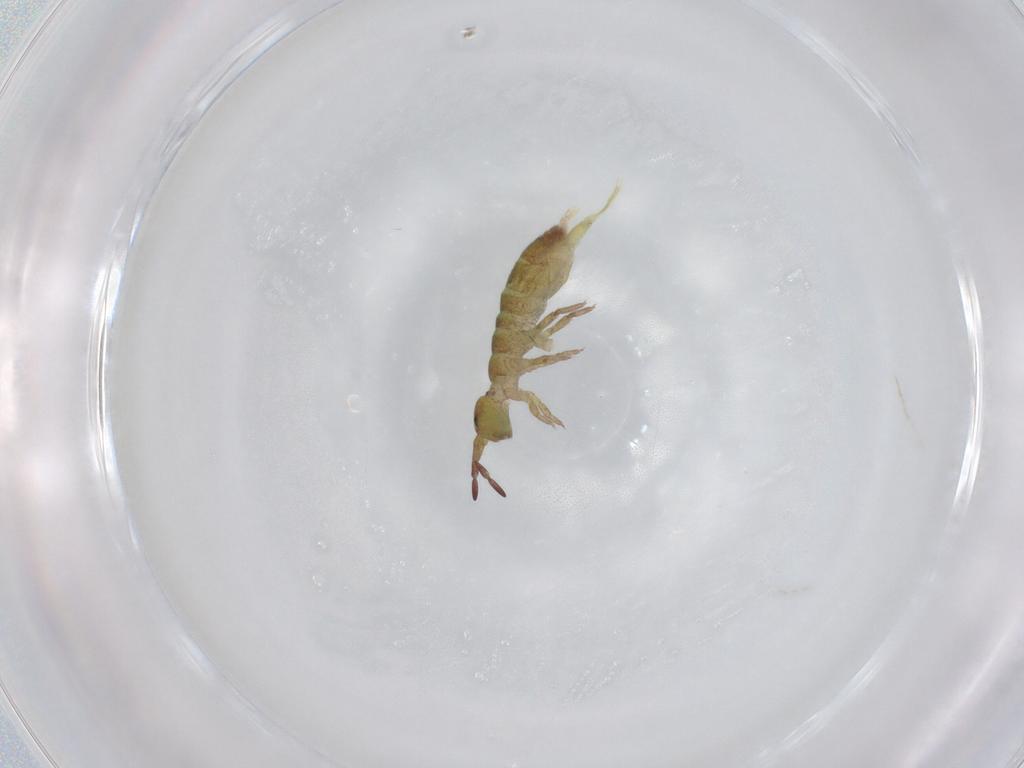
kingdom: Animalia
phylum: Arthropoda
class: Collembola
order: Entomobryomorpha
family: Isotomidae
